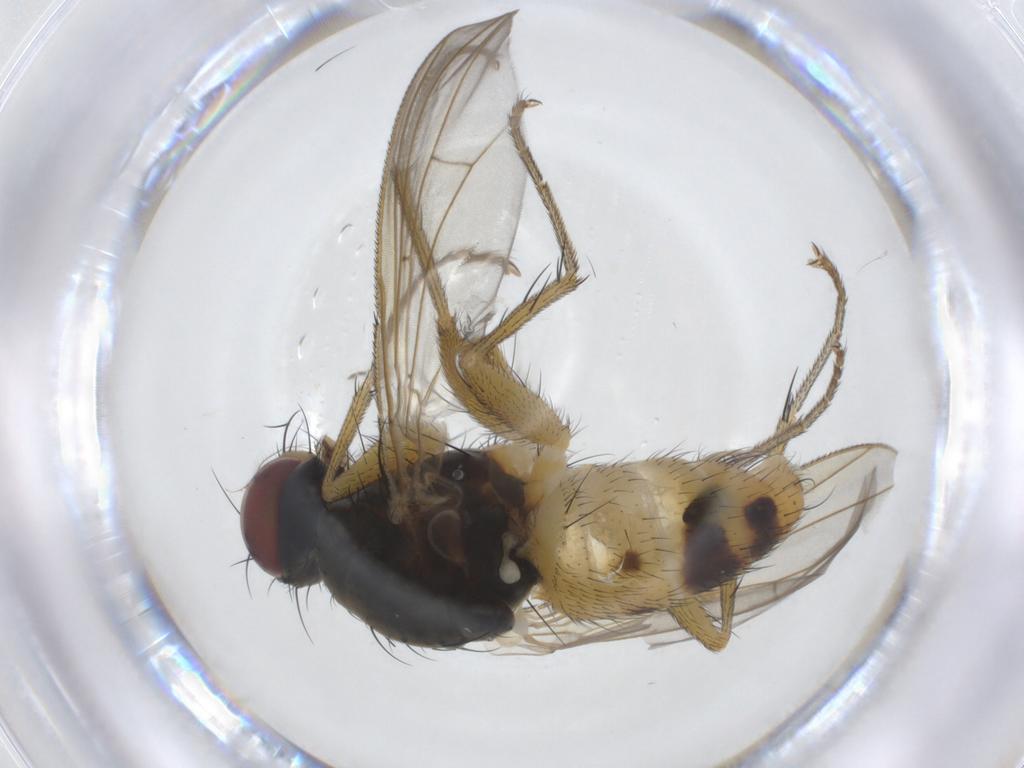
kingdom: Animalia
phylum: Arthropoda
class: Insecta
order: Diptera
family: Muscidae
